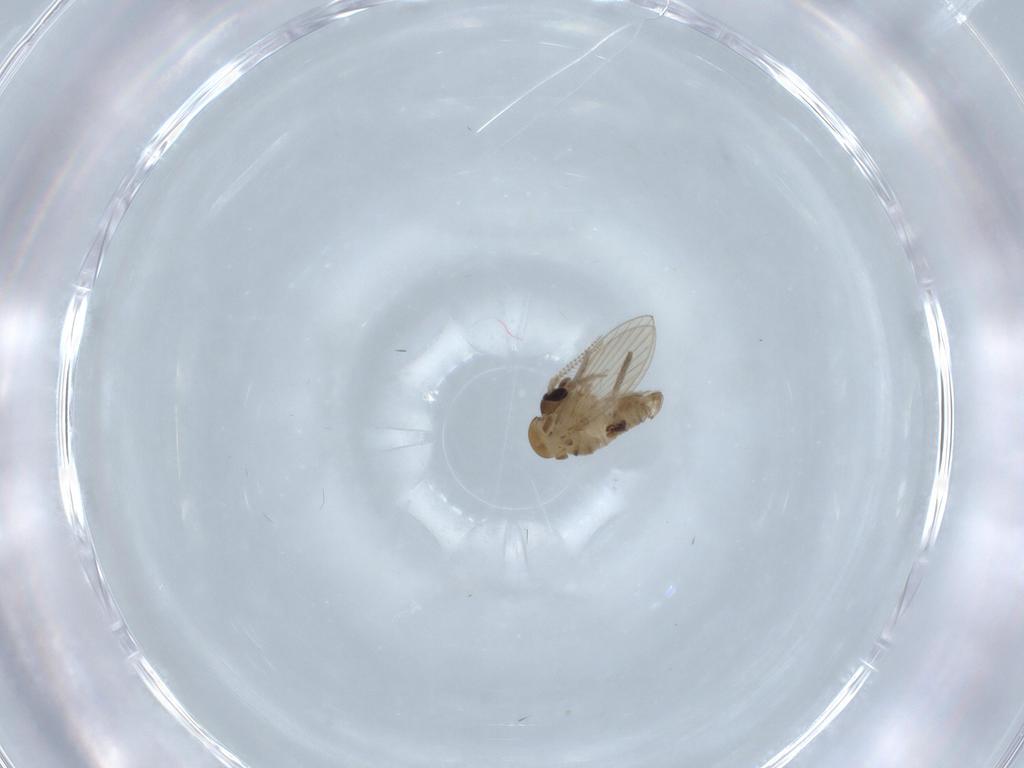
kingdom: Animalia
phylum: Arthropoda
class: Insecta
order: Diptera
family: Psychodidae
